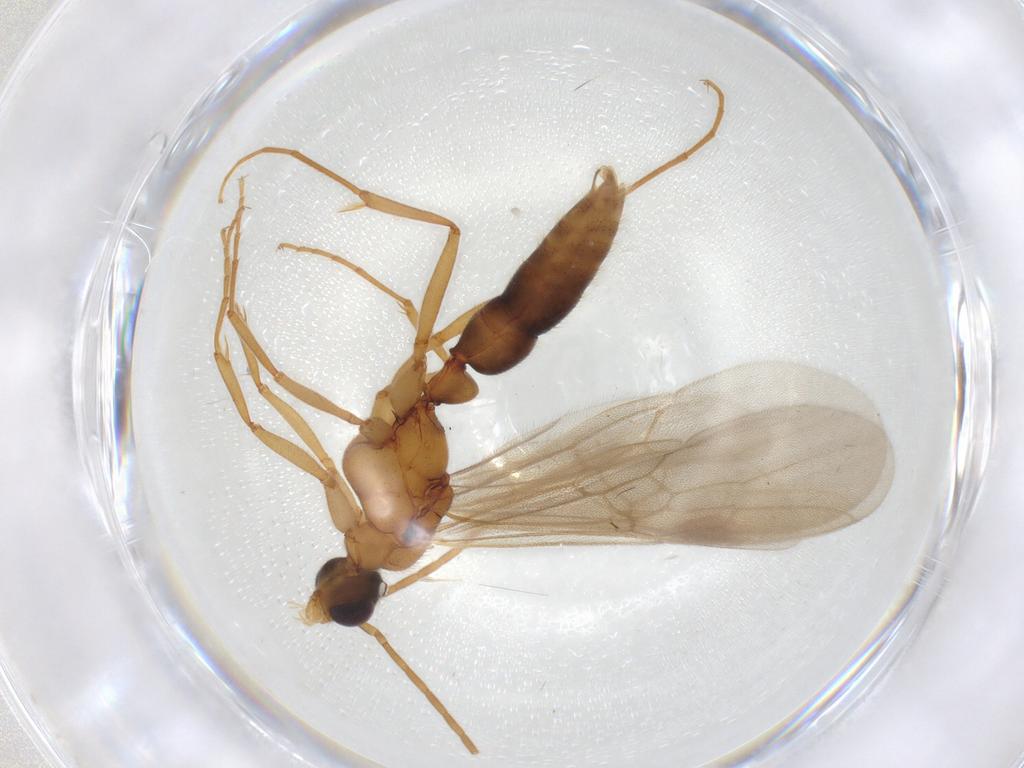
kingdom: Animalia
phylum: Arthropoda
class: Insecta
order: Hymenoptera
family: Formicidae
